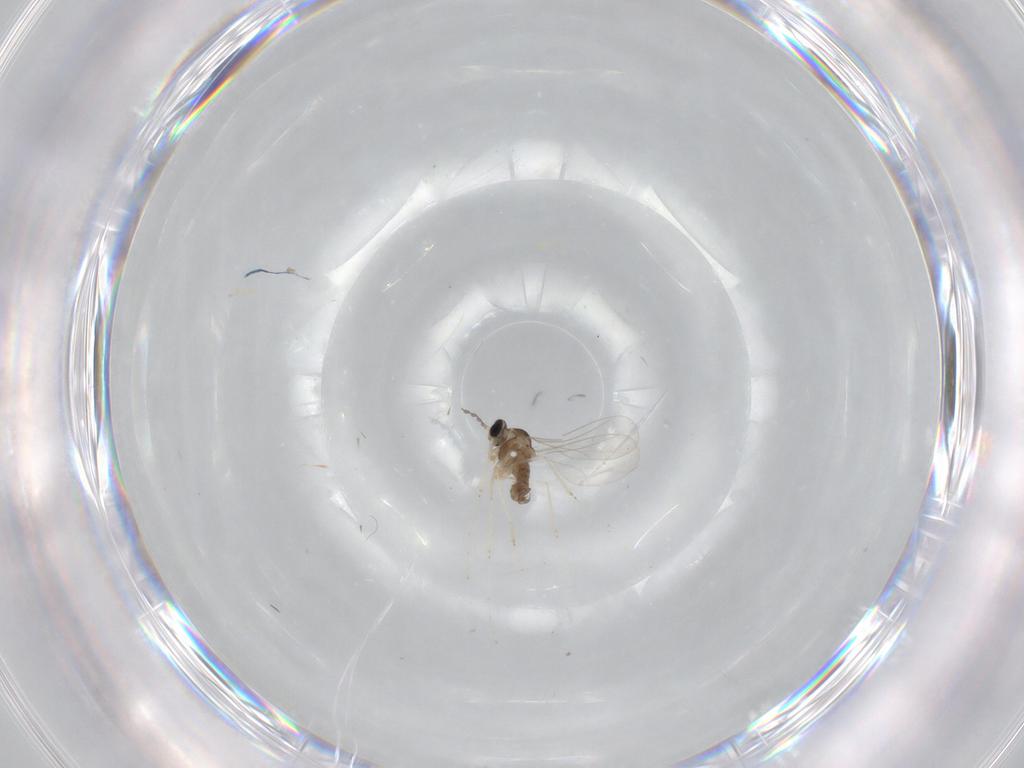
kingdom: Animalia
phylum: Arthropoda
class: Insecta
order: Diptera
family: Cecidomyiidae
